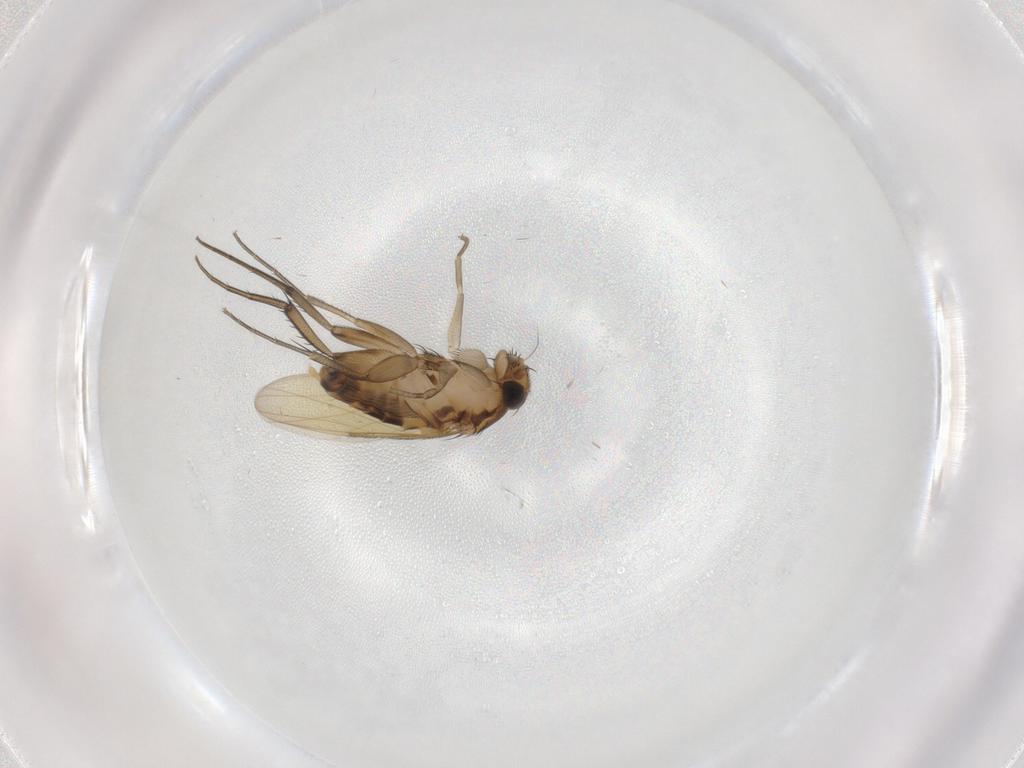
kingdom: Animalia
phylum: Arthropoda
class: Insecta
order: Diptera
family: Phoridae
